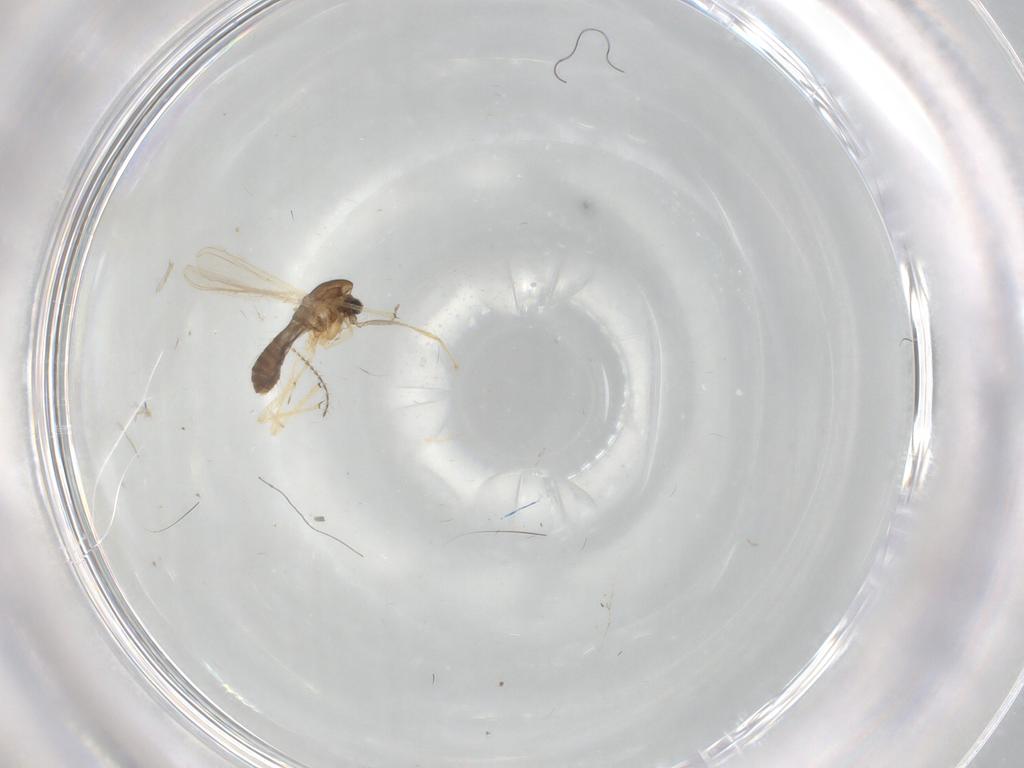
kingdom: Animalia
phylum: Arthropoda
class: Insecta
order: Diptera
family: Chironomidae
